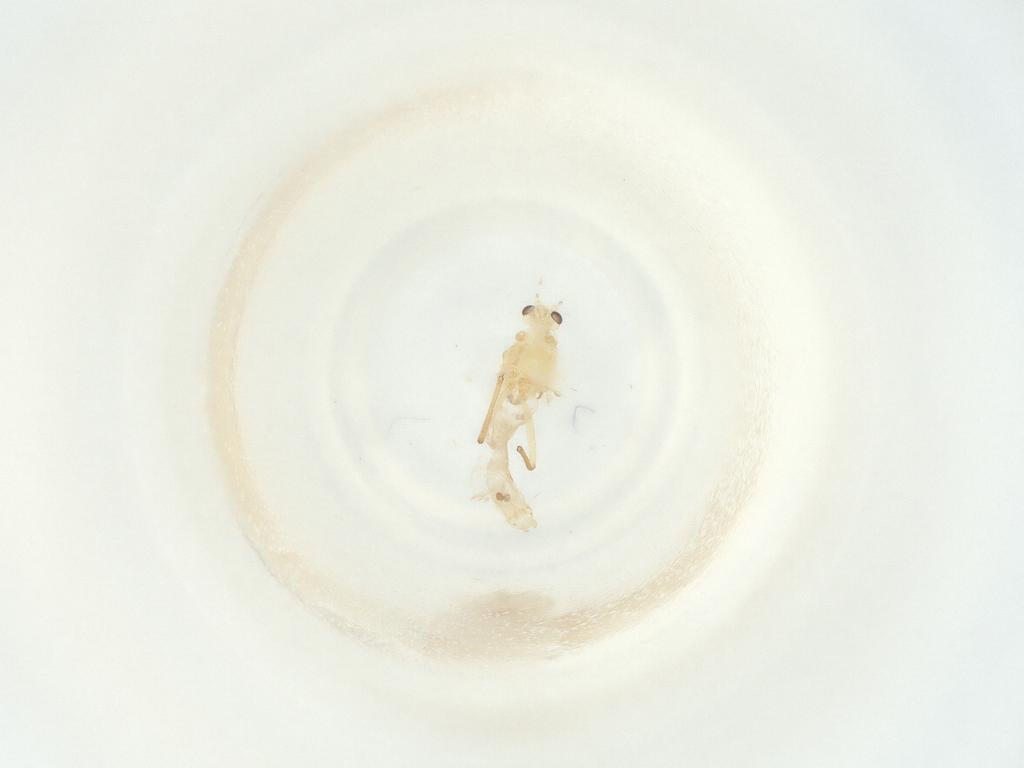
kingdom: Animalia
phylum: Arthropoda
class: Insecta
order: Diptera
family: Chironomidae
